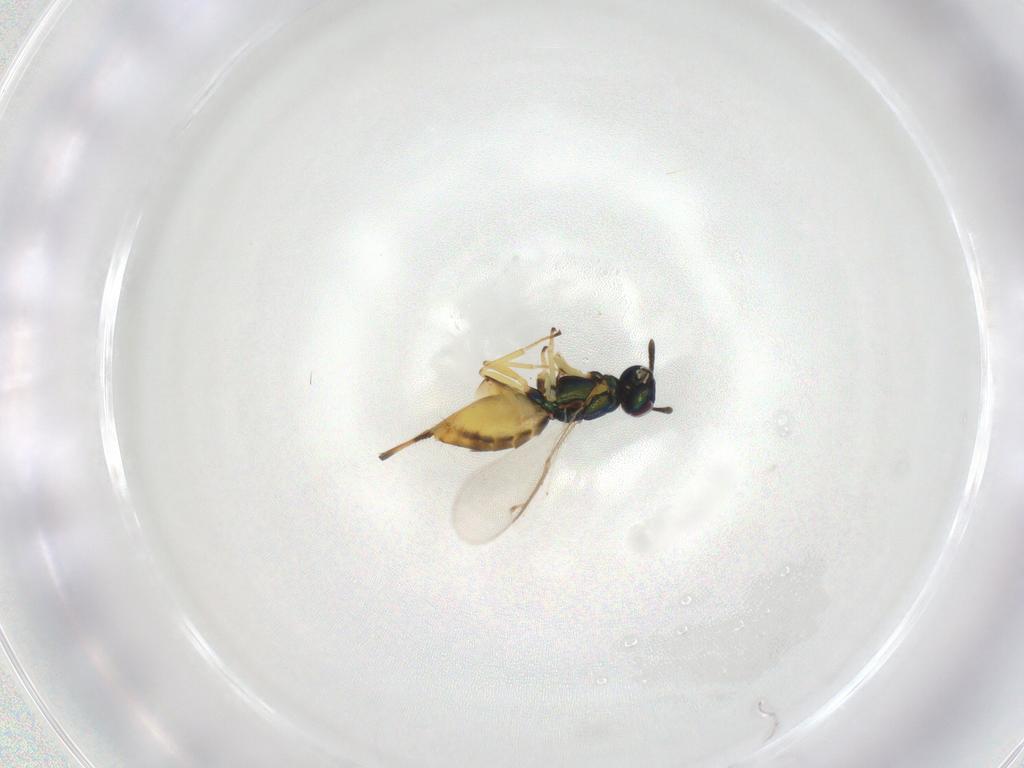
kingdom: Animalia
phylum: Arthropoda
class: Insecta
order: Hymenoptera
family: Eupelmidae
